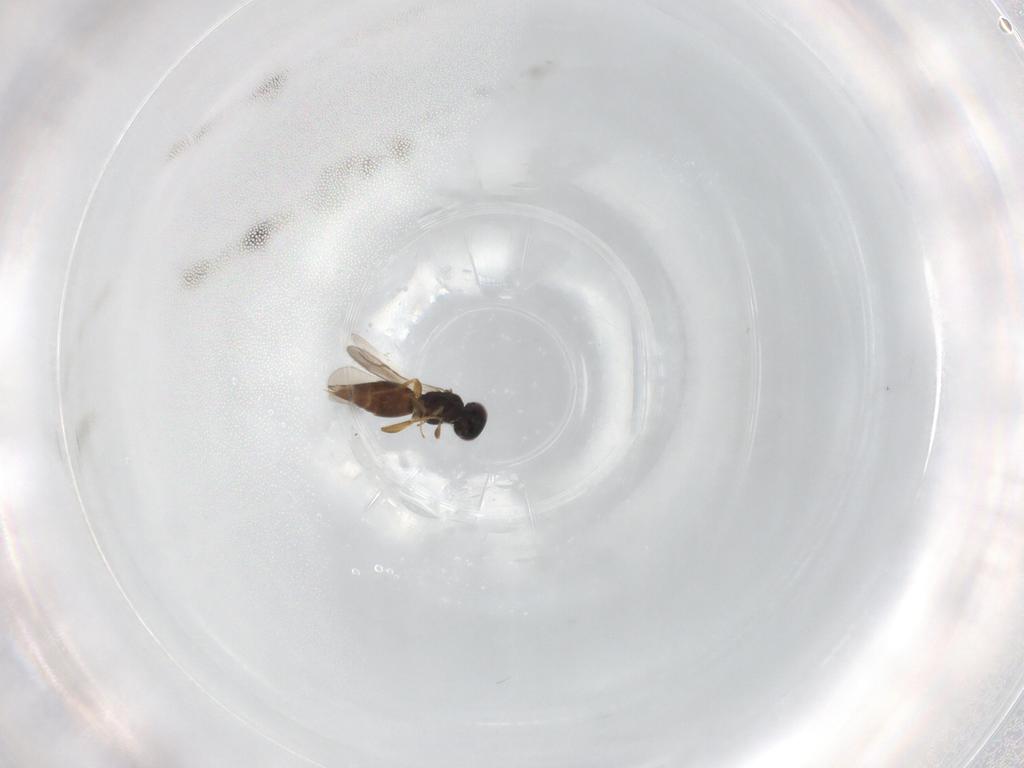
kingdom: Animalia
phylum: Arthropoda
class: Insecta
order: Hymenoptera
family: Ceraphronidae
